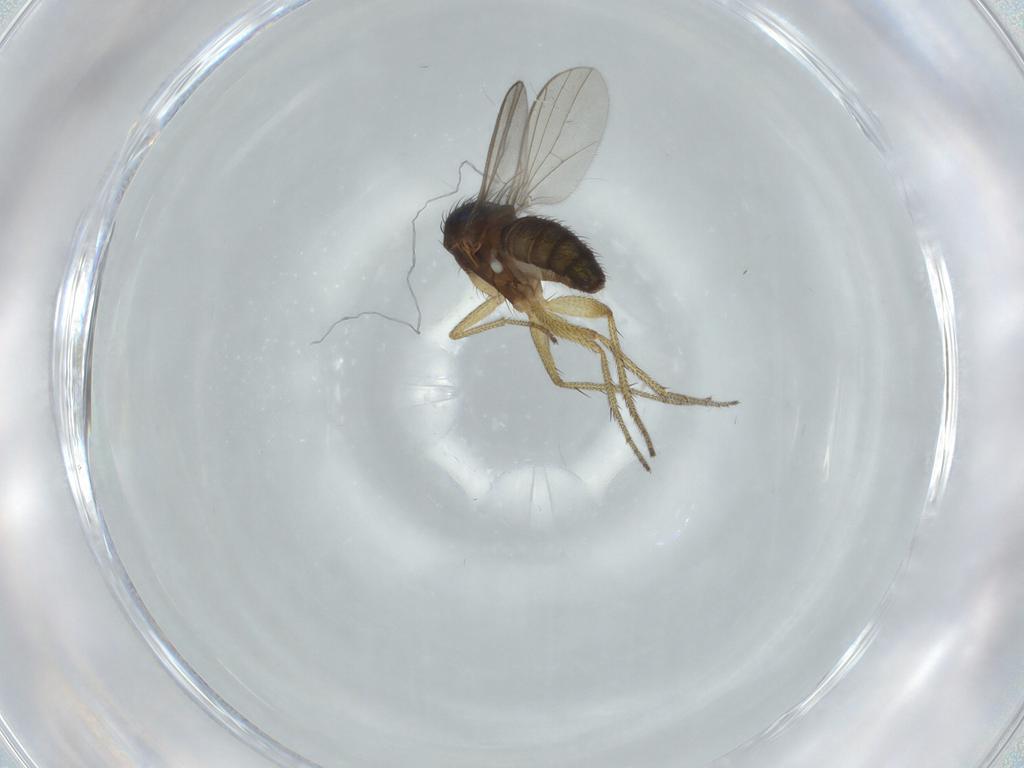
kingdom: Animalia
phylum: Arthropoda
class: Insecta
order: Diptera
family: Dolichopodidae
